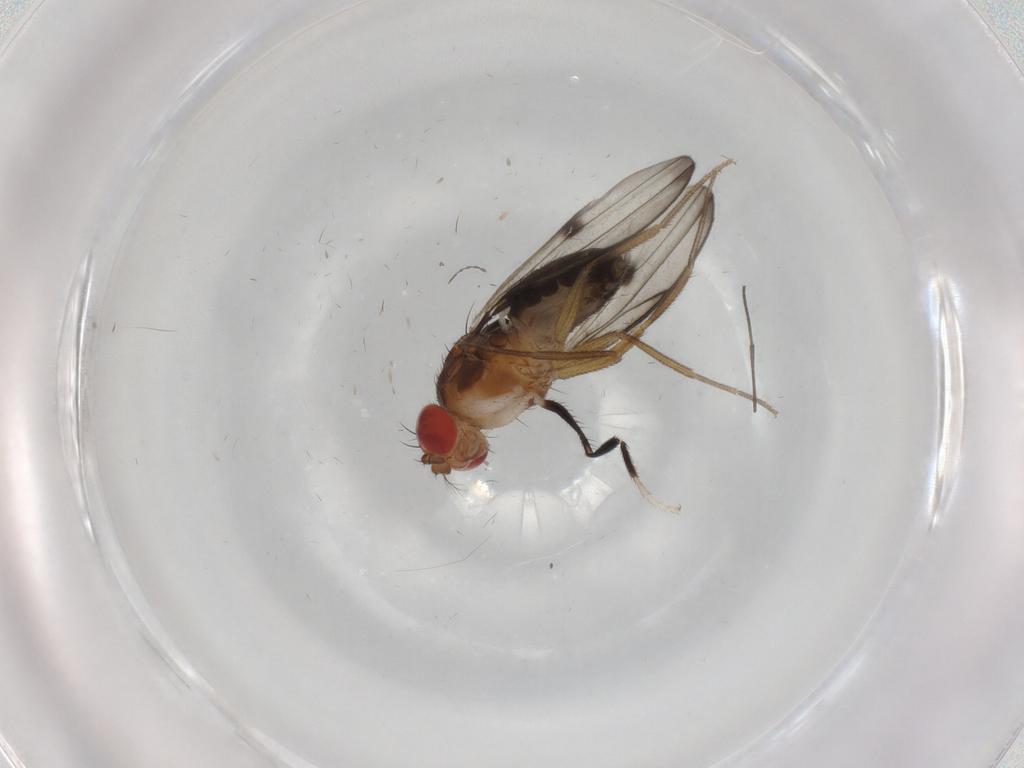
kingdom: Animalia
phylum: Arthropoda
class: Insecta
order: Diptera
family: Drosophilidae
